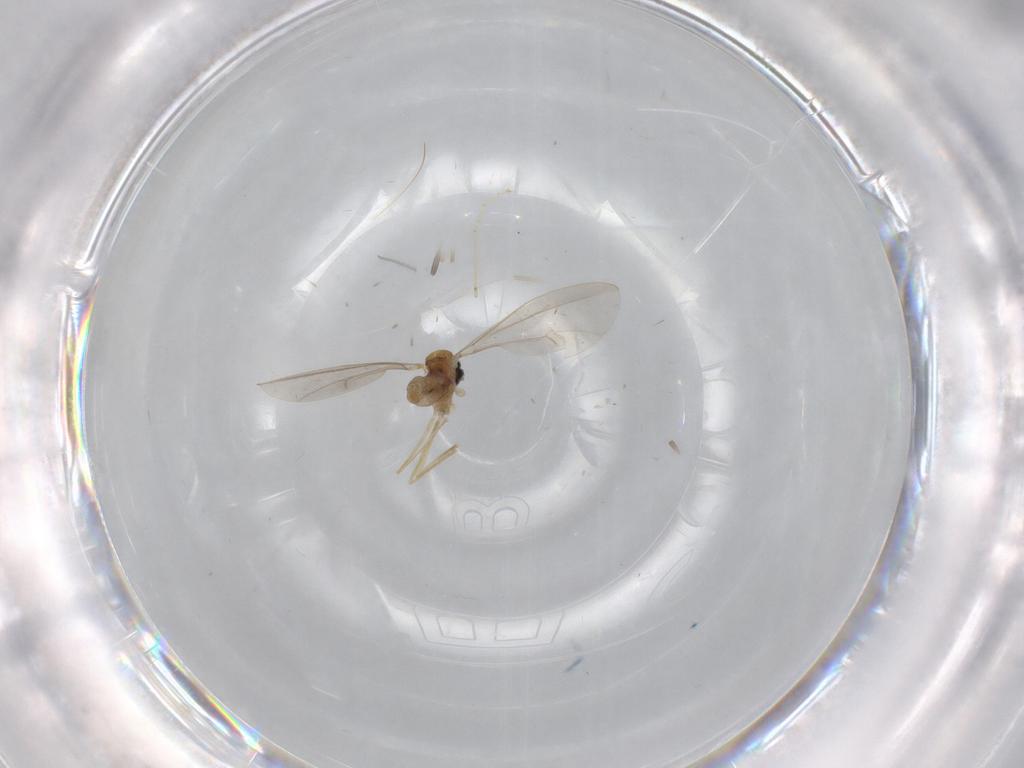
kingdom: Animalia
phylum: Arthropoda
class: Insecta
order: Diptera
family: Cecidomyiidae
